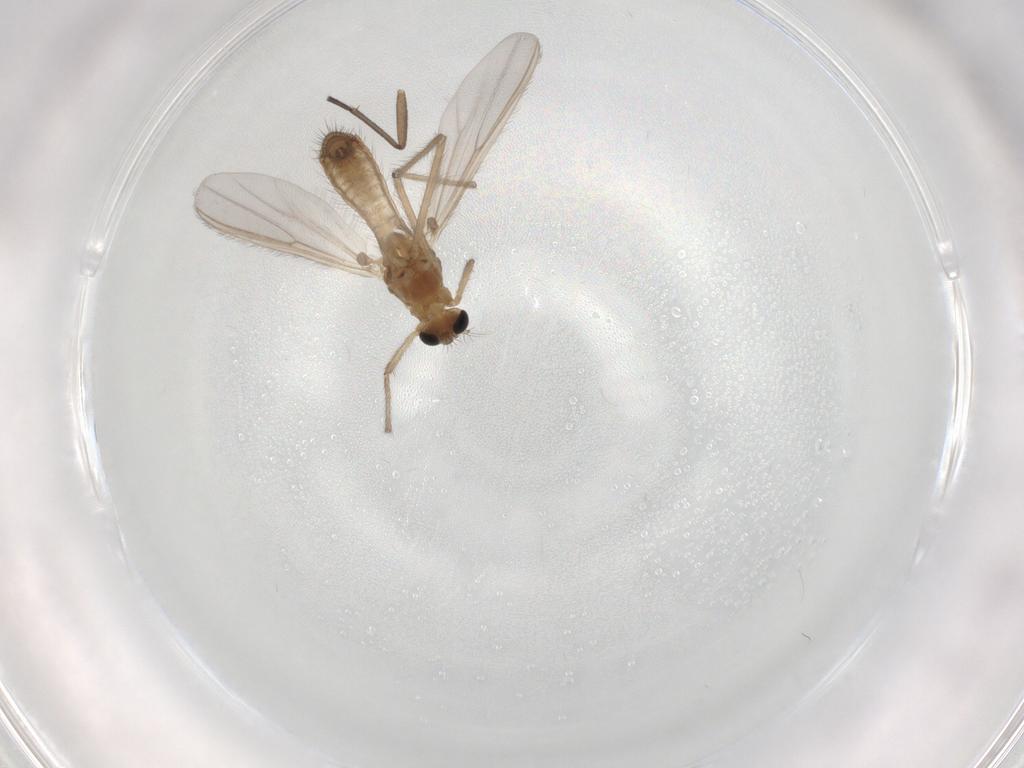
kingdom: Animalia
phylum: Arthropoda
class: Insecta
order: Diptera
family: Chironomidae
